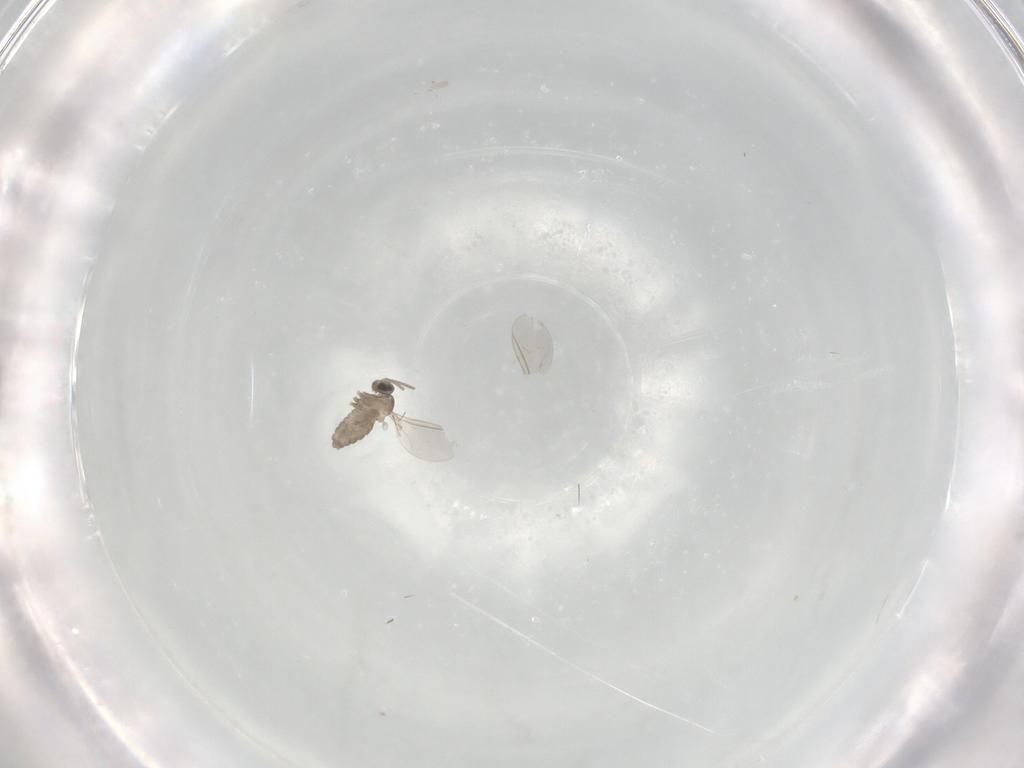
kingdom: Animalia
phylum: Arthropoda
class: Insecta
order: Diptera
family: Cecidomyiidae
